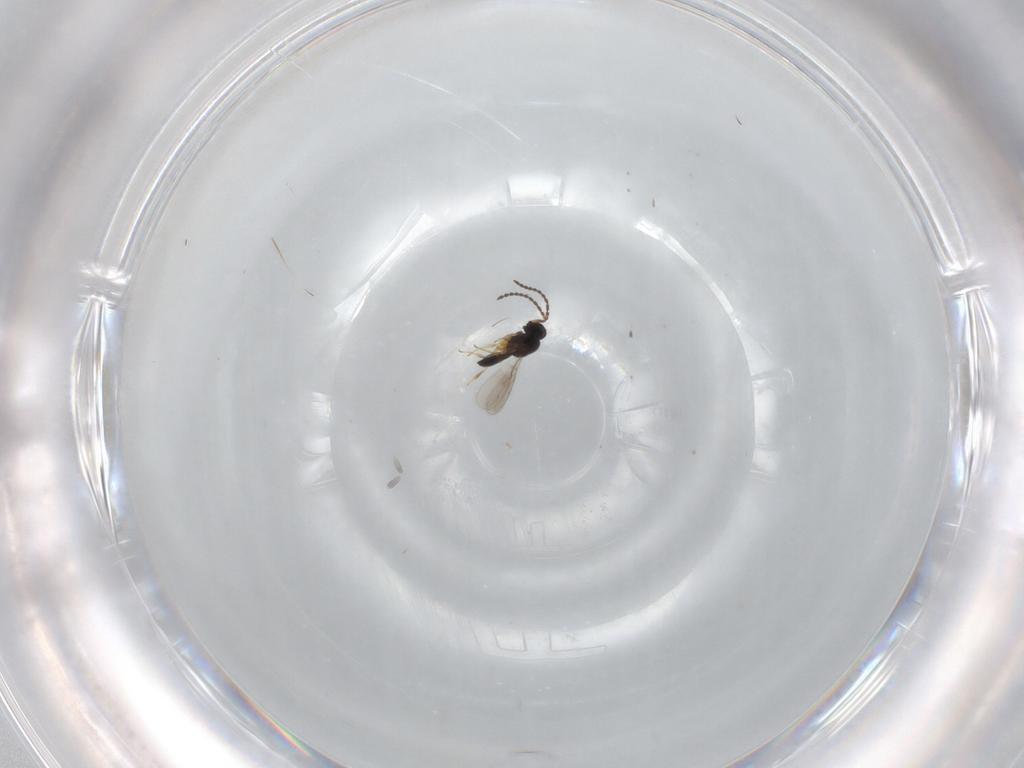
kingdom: Animalia
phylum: Arthropoda
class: Insecta
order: Hymenoptera
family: Scelionidae
